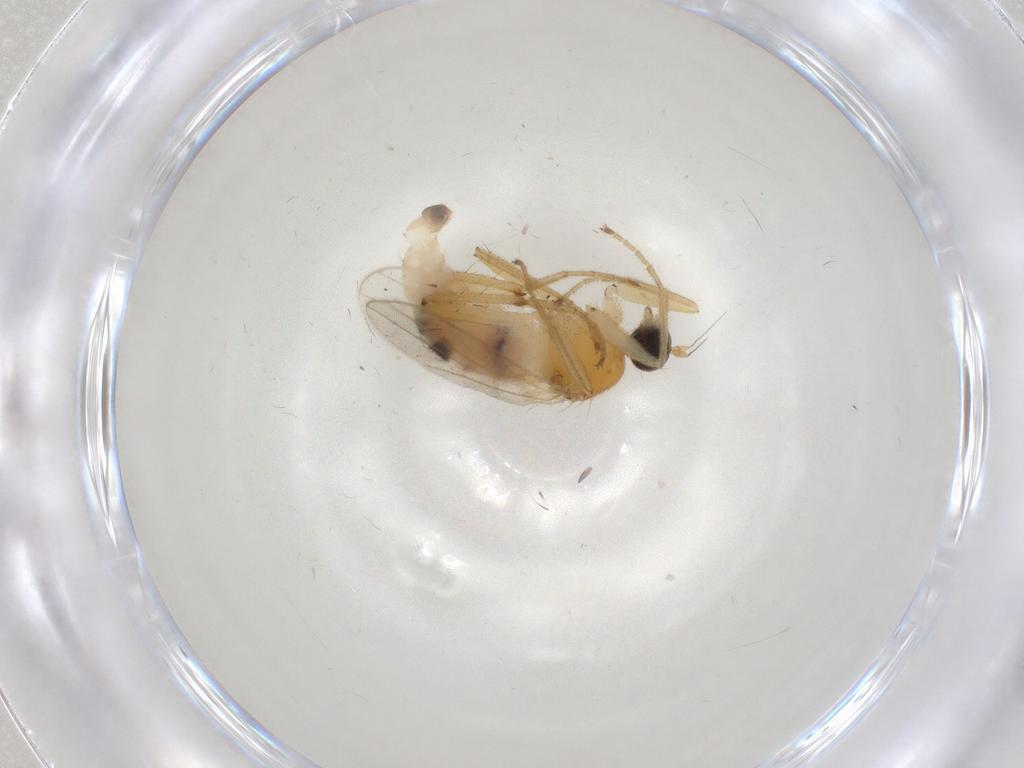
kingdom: Animalia
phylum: Arthropoda
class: Insecta
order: Diptera
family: Hybotidae
